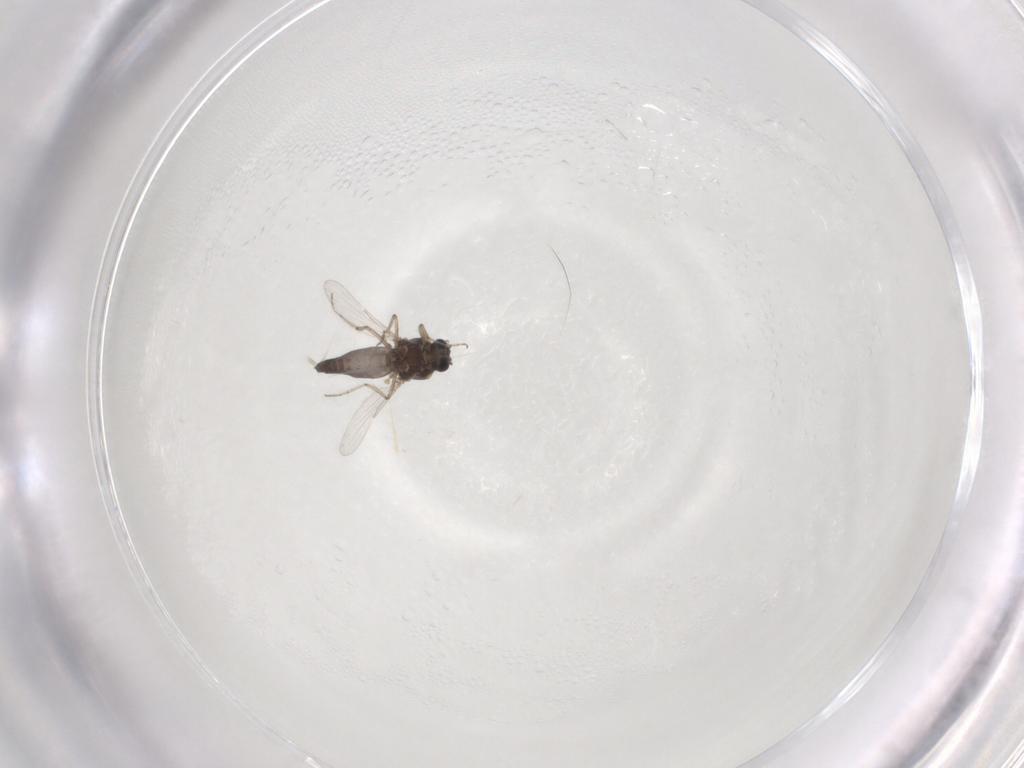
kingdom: Animalia
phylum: Arthropoda
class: Insecta
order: Diptera
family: Ceratopogonidae
